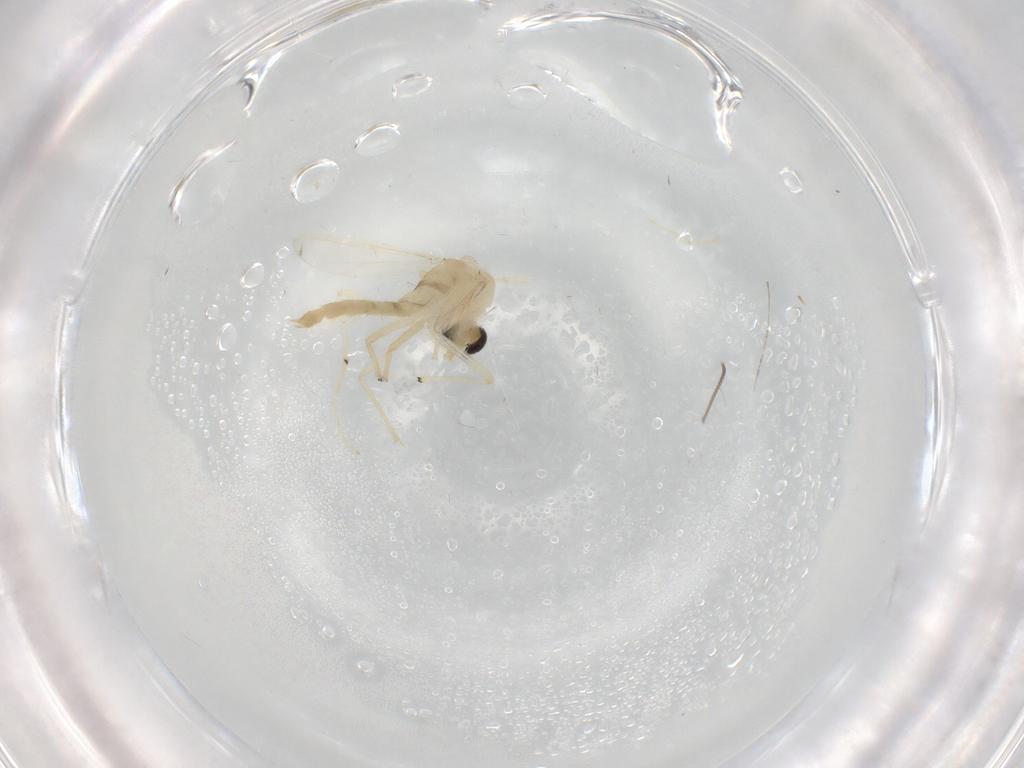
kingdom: Animalia
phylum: Arthropoda
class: Insecta
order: Diptera
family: Chironomidae
